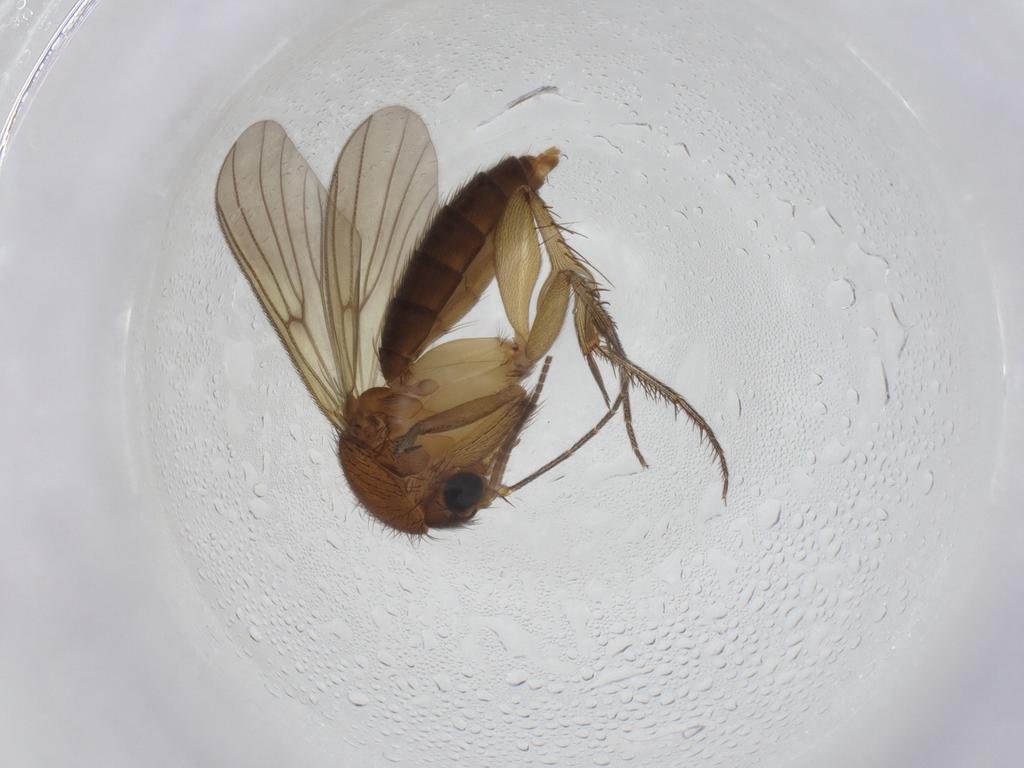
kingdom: Animalia
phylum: Arthropoda
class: Insecta
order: Diptera
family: Mycetophilidae
